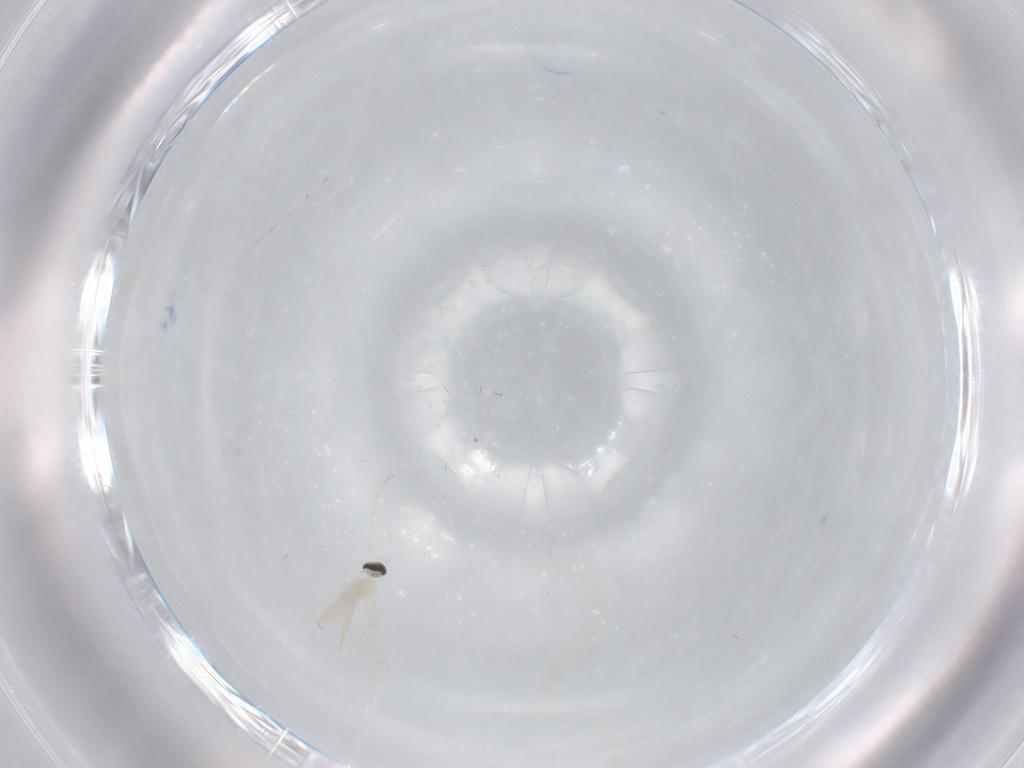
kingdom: Animalia
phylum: Arthropoda
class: Insecta
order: Diptera
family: Cecidomyiidae
